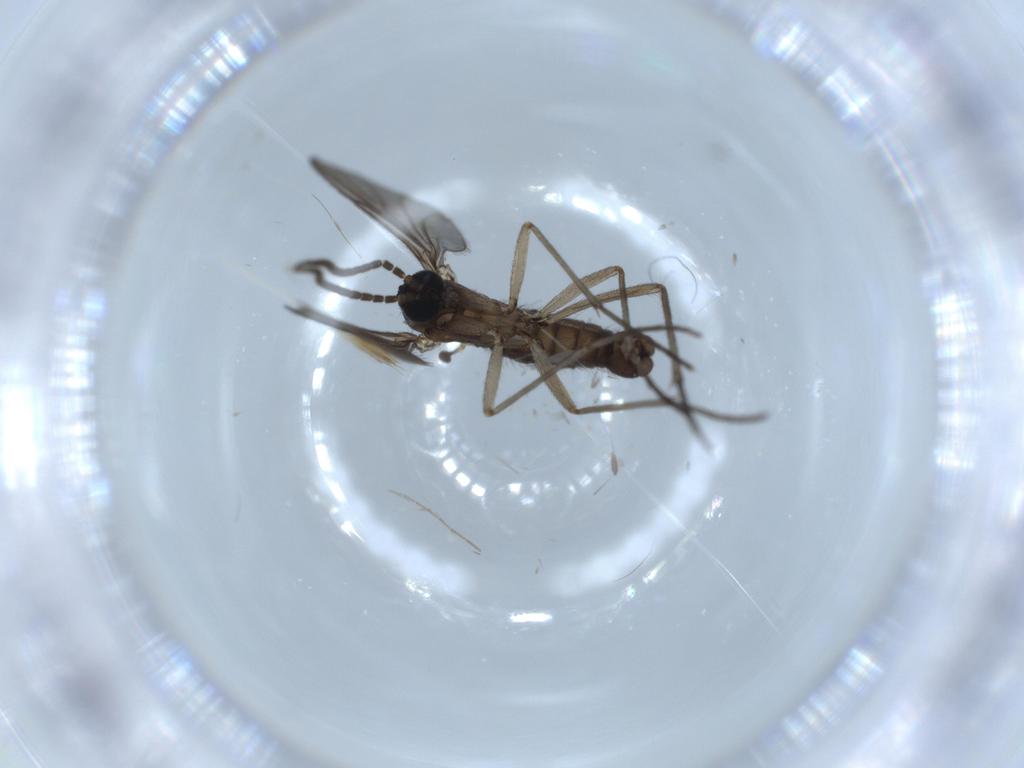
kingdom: Animalia
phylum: Arthropoda
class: Insecta
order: Diptera
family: Sciaridae
